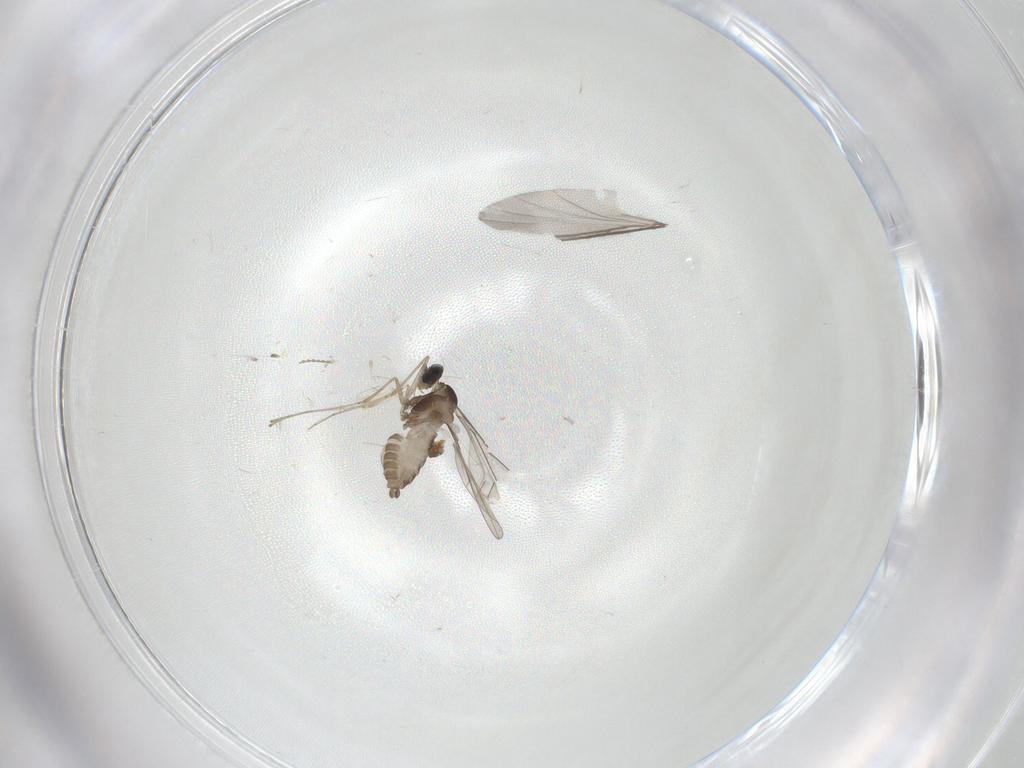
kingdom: Animalia
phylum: Arthropoda
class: Insecta
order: Diptera
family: Cecidomyiidae
